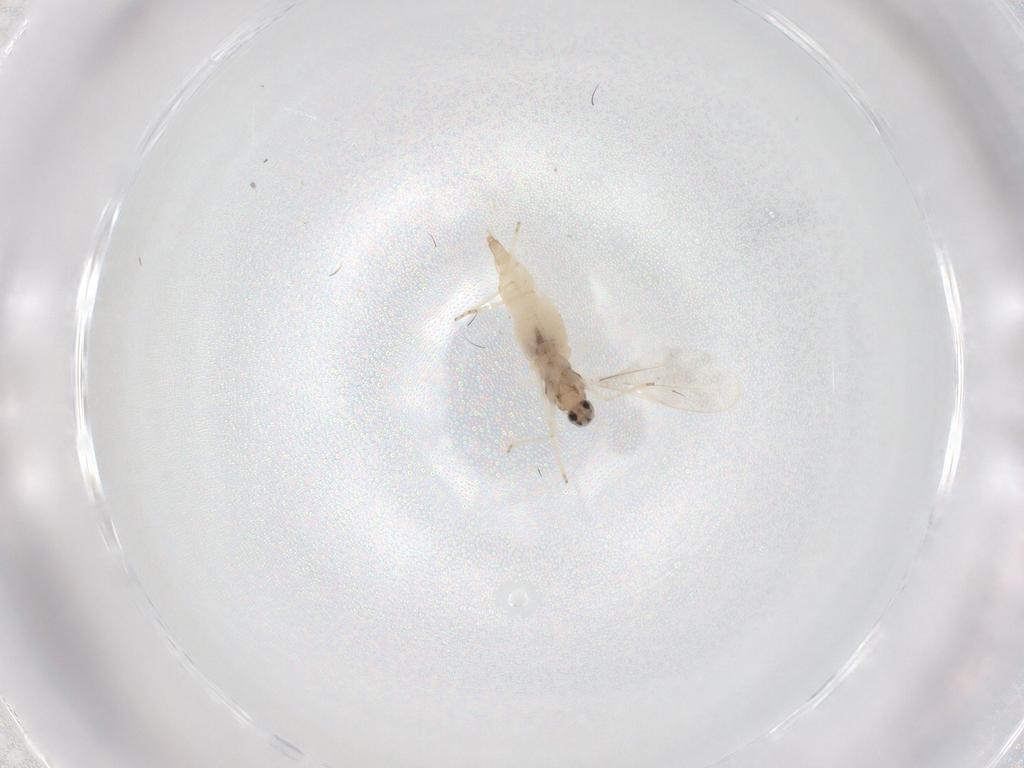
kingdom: Animalia
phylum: Arthropoda
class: Insecta
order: Diptera
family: Cecidomyiidae
